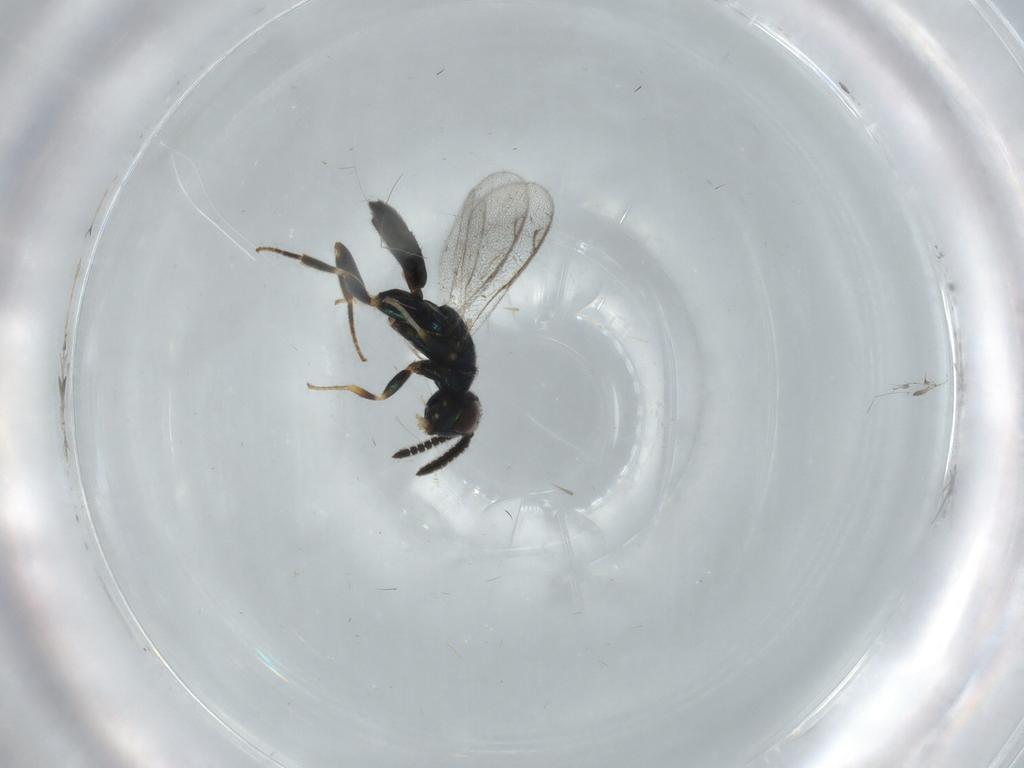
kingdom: Animalia
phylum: Arthropoda
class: Insecta
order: Hymenoptera
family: Cleonyminae
